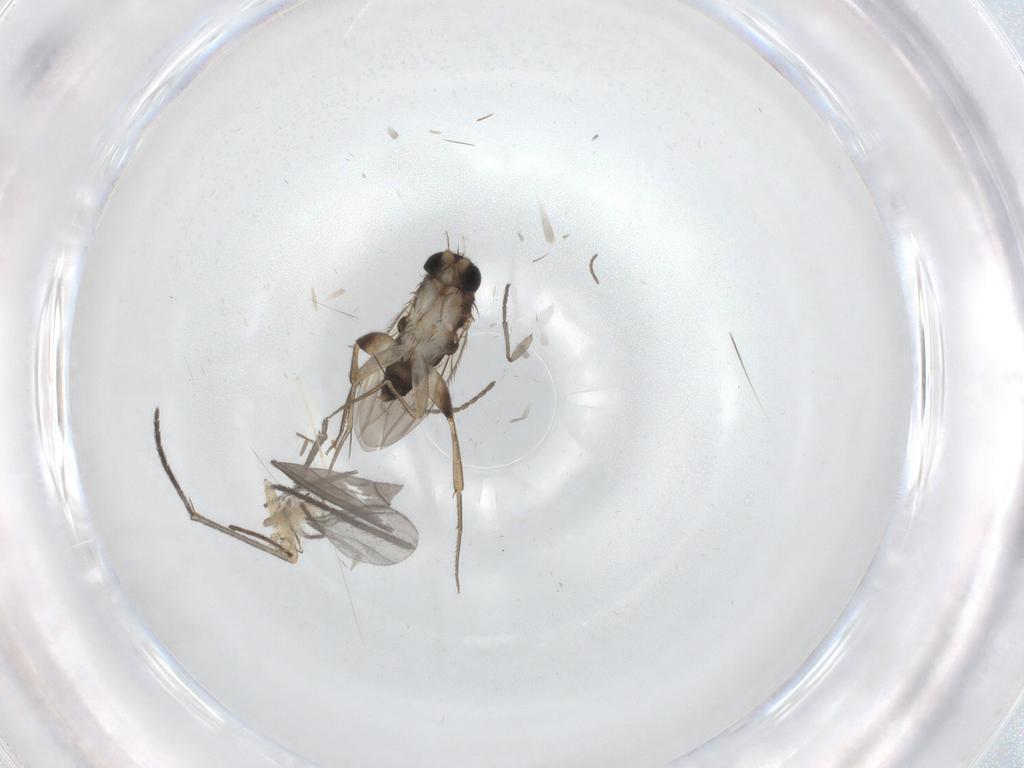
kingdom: Animalia
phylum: Arthropoda
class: Insecta
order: Diptera
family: Phoridae
